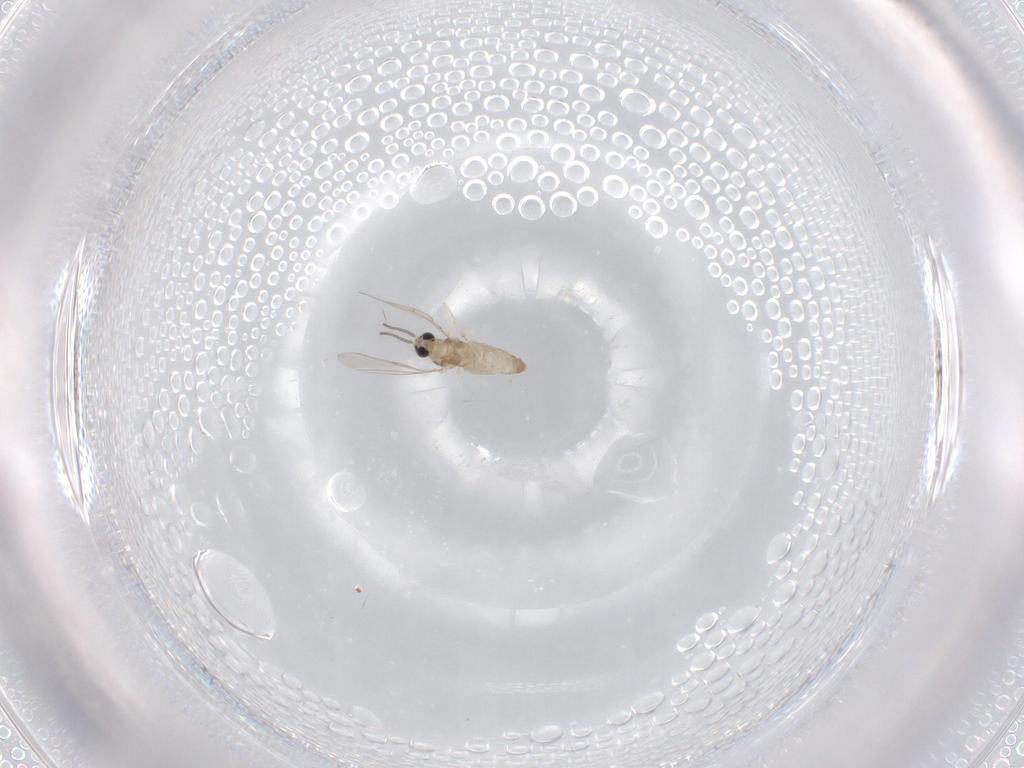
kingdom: Animalia
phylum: Arthropoda
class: Insecta
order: Diptera
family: Cecidomyiidae
